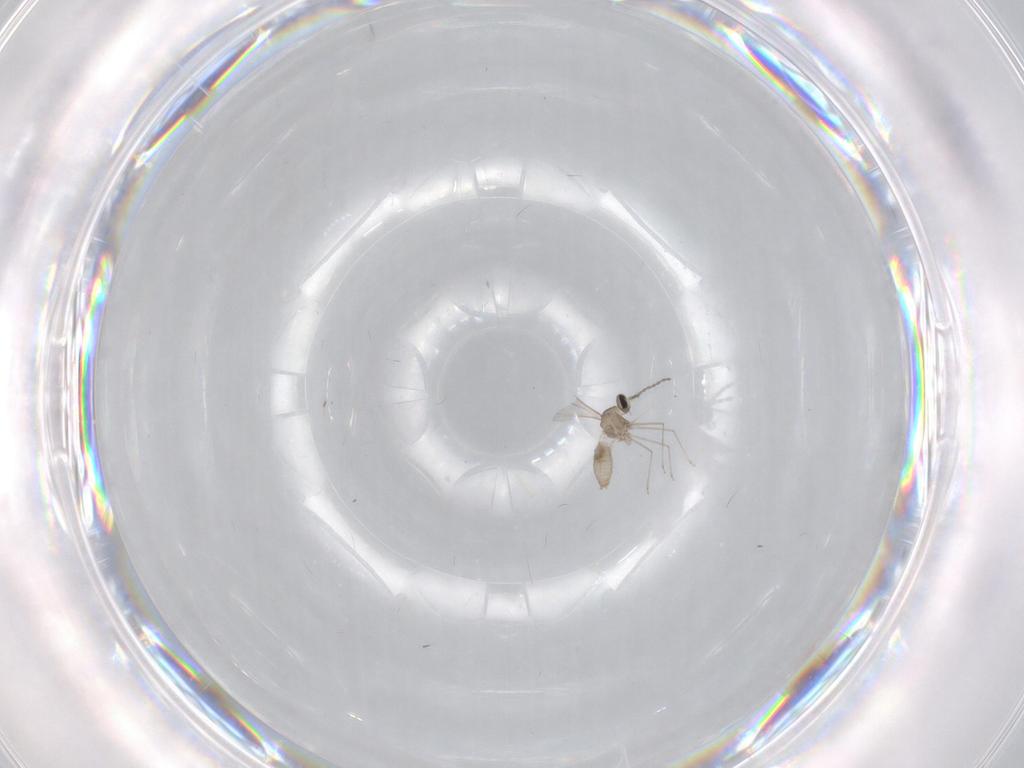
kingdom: Animalia
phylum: Arthropoda
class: Insecta
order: Diptera
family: Cecidomyiidae
